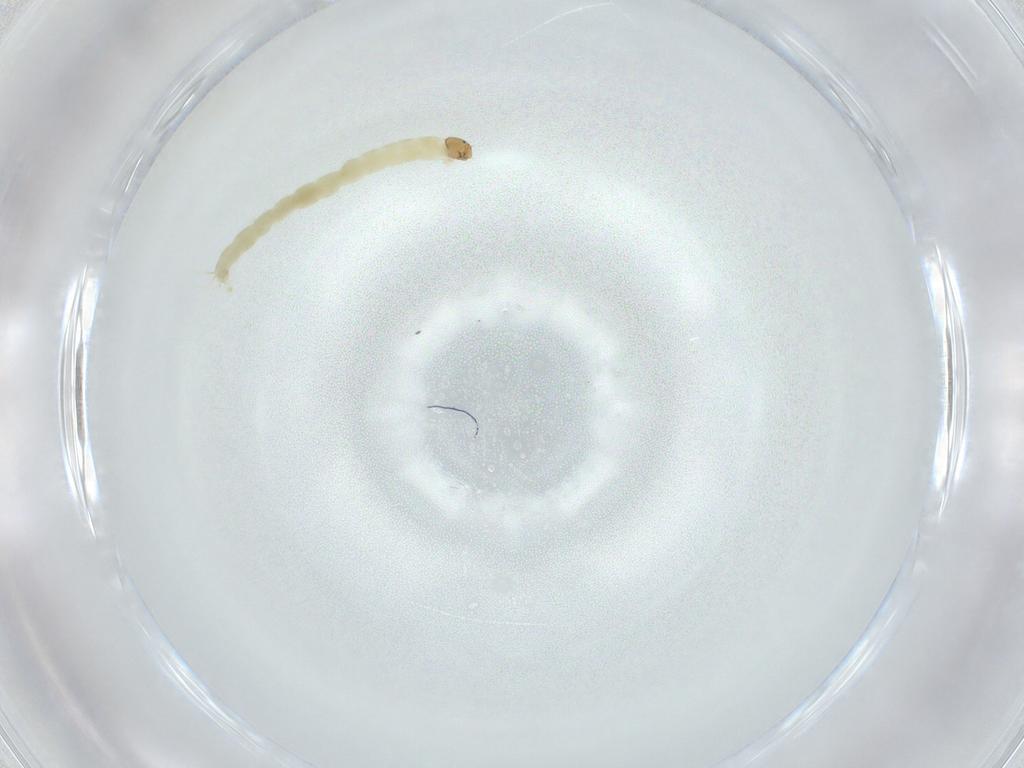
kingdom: Animalia
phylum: Arthropoda
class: Insecta
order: Diptera
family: Chironomidae
